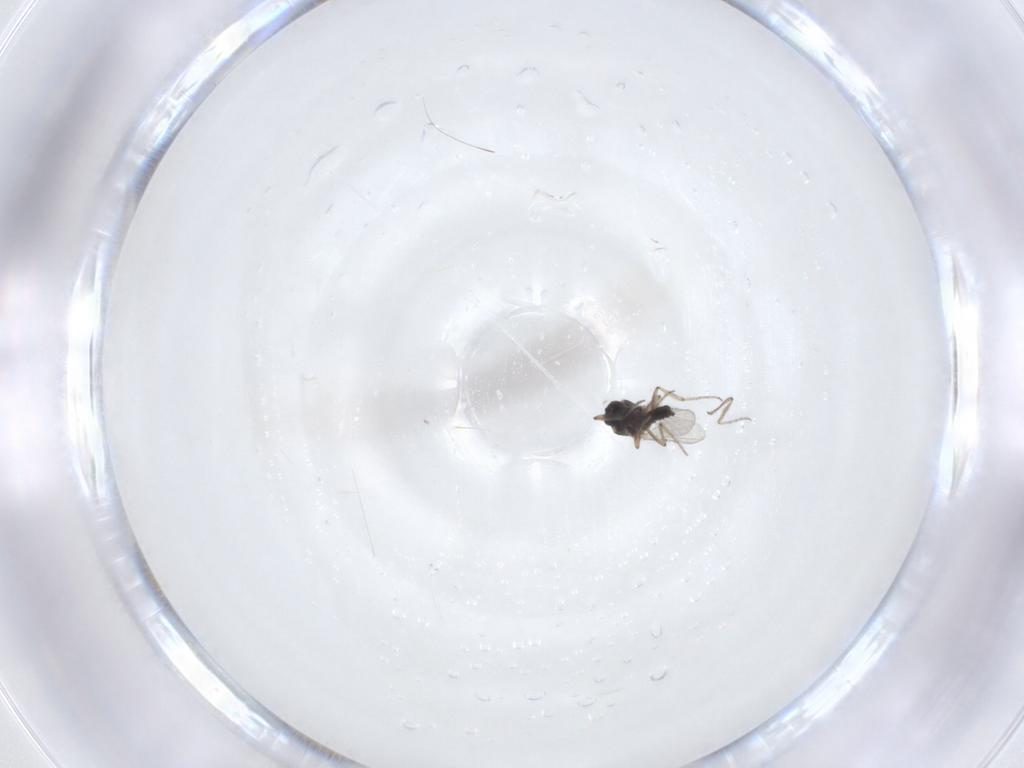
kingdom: Animalia
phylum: Arthropoda
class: Insecta
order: Diptera
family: Ceratopogonidae
